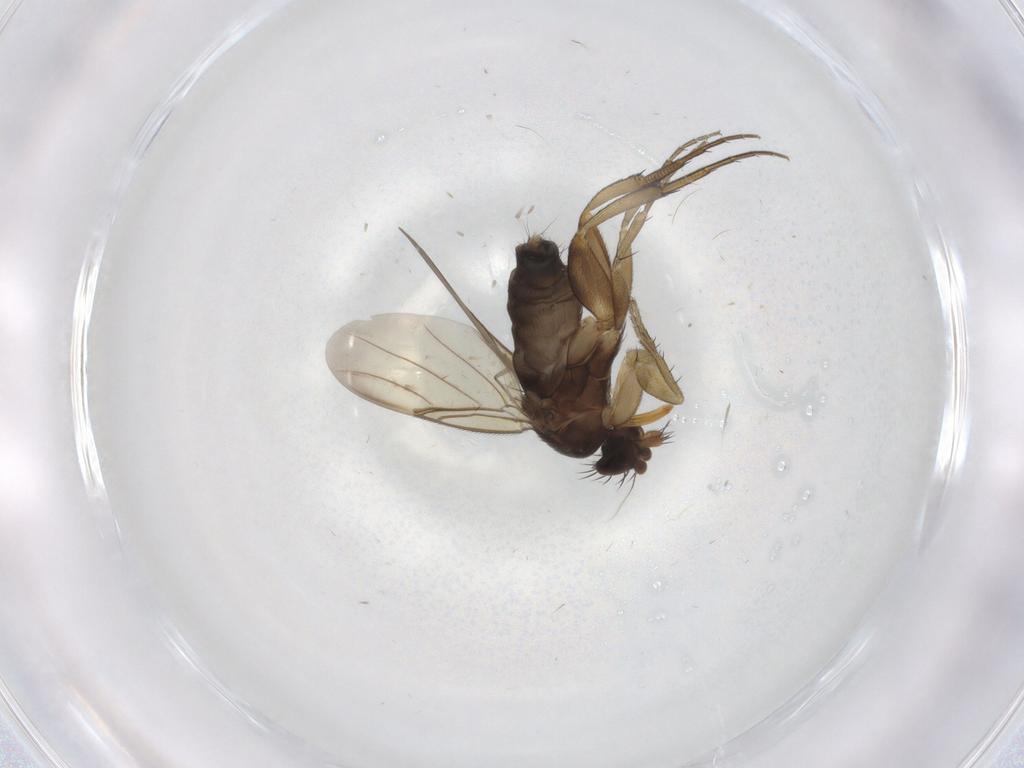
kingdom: Animalia
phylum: Arthropoda
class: Insecta
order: Diptera
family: Phoridae
